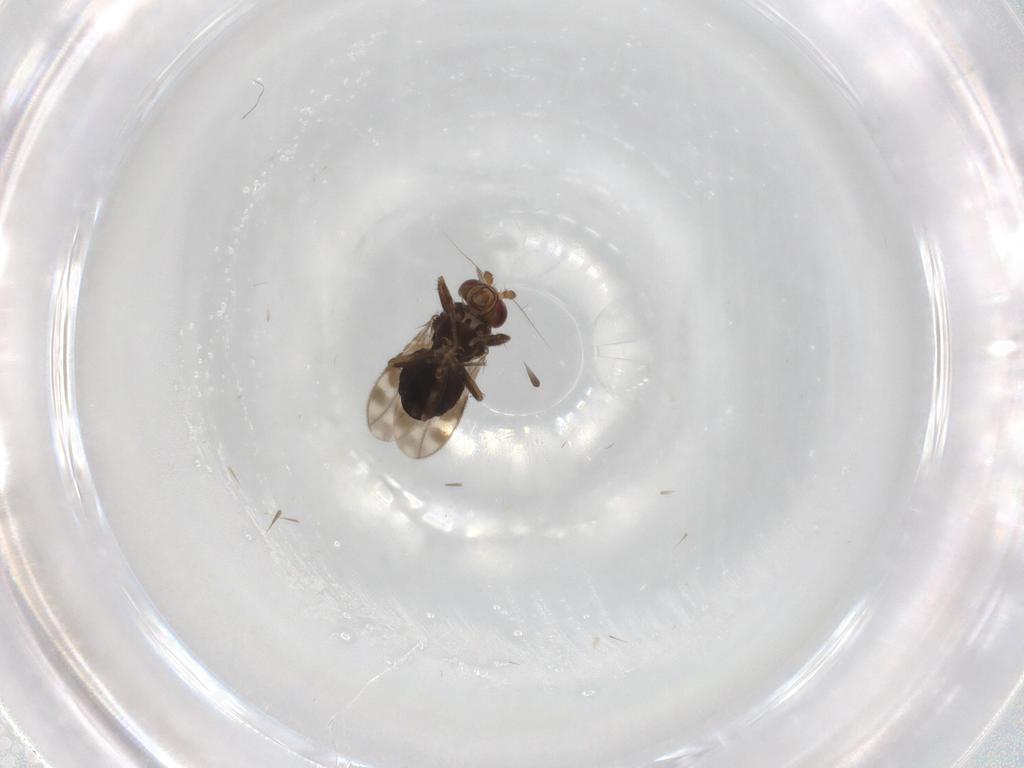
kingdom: Animalia
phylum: Arthropoda
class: Insecta
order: Diptera
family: Sphaeroceridae
